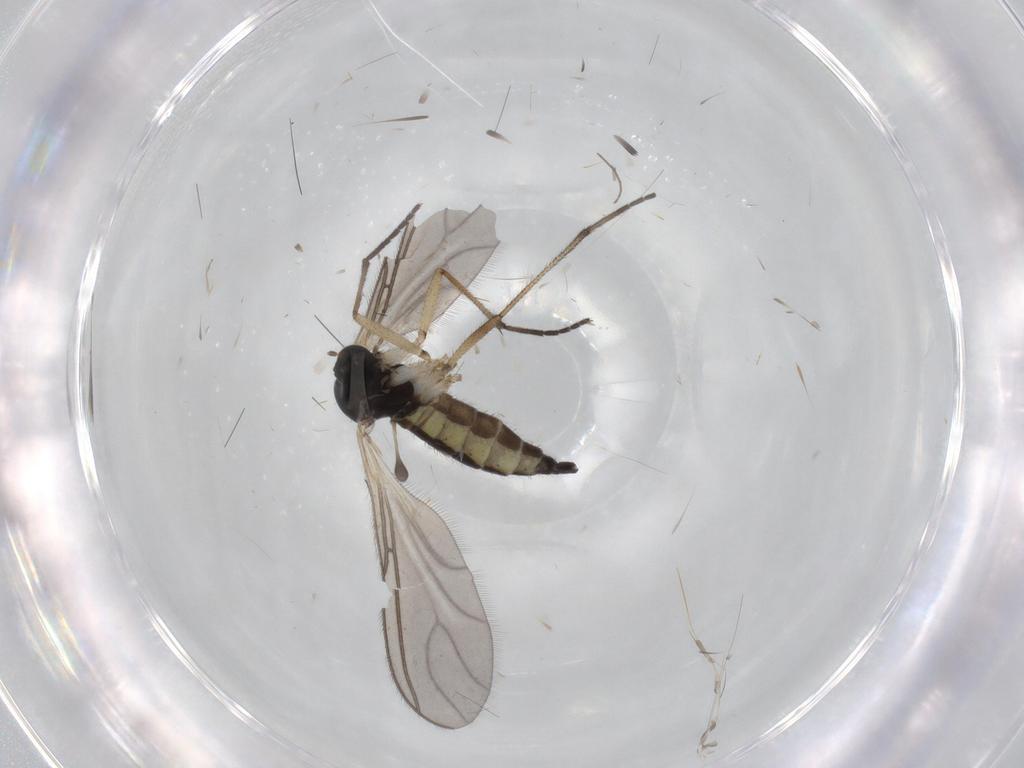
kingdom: Animalia
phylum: Arthropoda
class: Insecta
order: Diptera
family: Sciaridae
